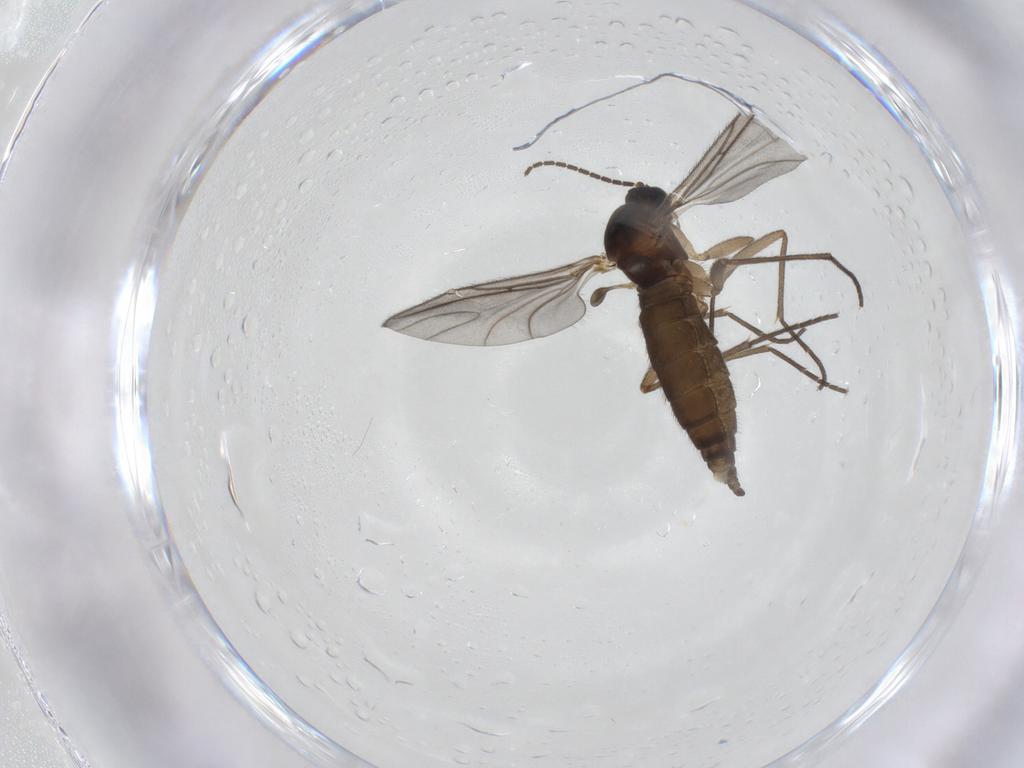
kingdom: Animalia
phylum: Arthropoda
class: Insecta
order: Diptera
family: Sciaridae
